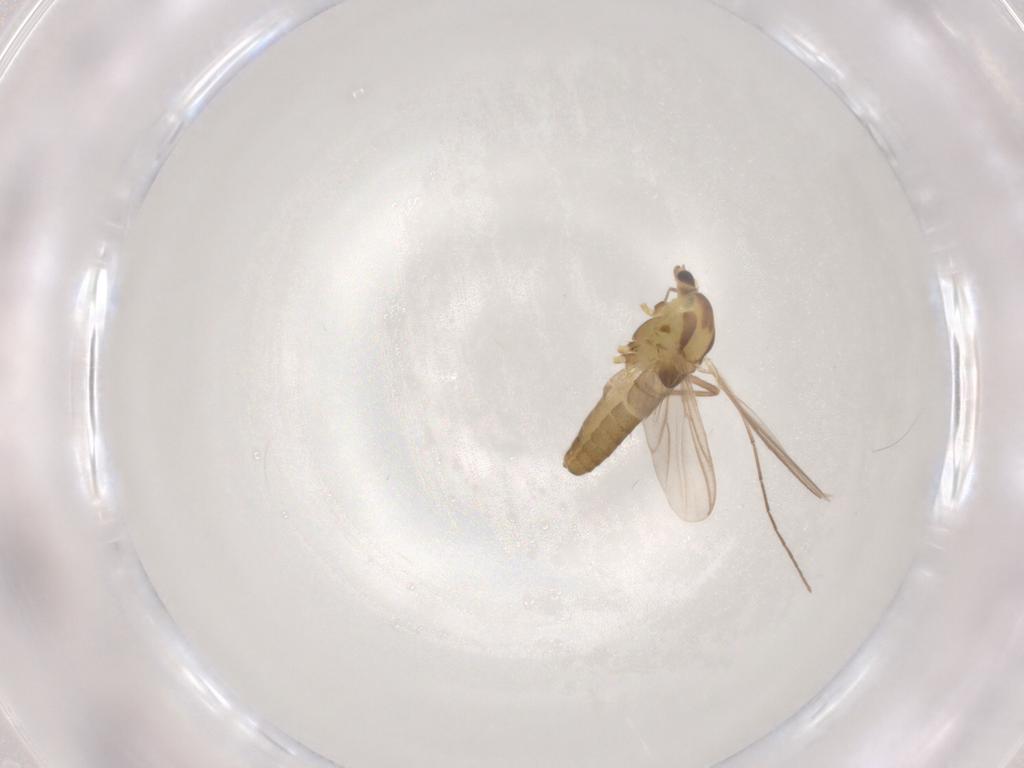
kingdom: Animalia
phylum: Arthropoda
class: Insecta
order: Diptera
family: Chironomidae
